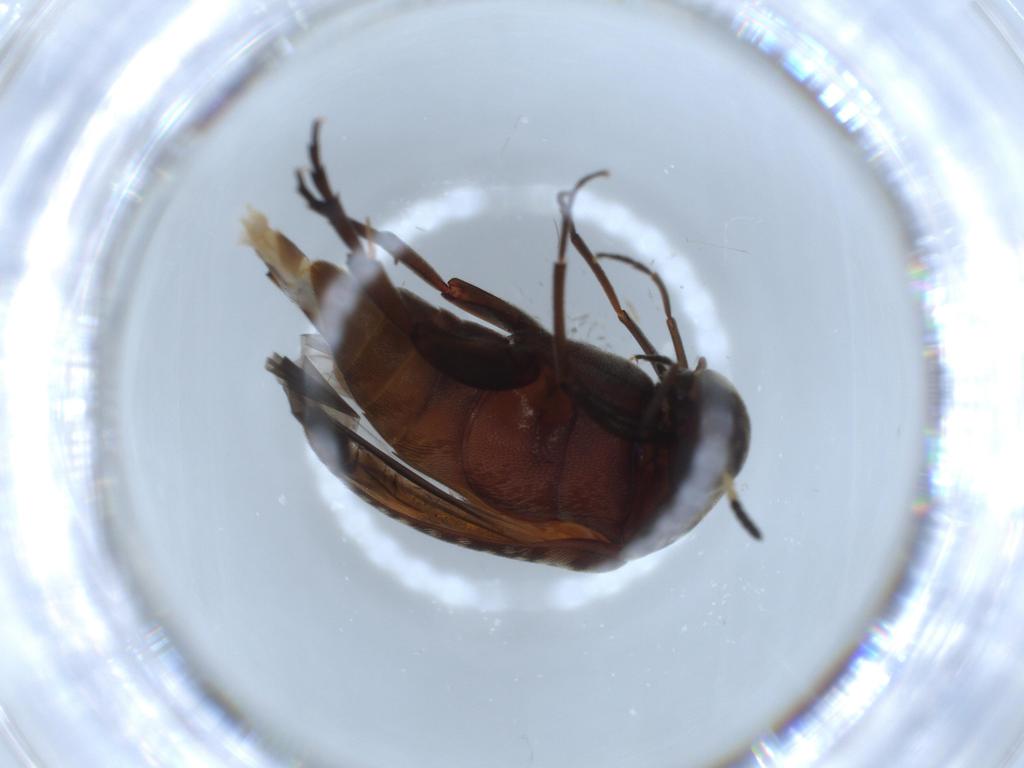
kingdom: Animalia
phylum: Arthropoda
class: Insecta
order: Coleoptera
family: Curculionidae
